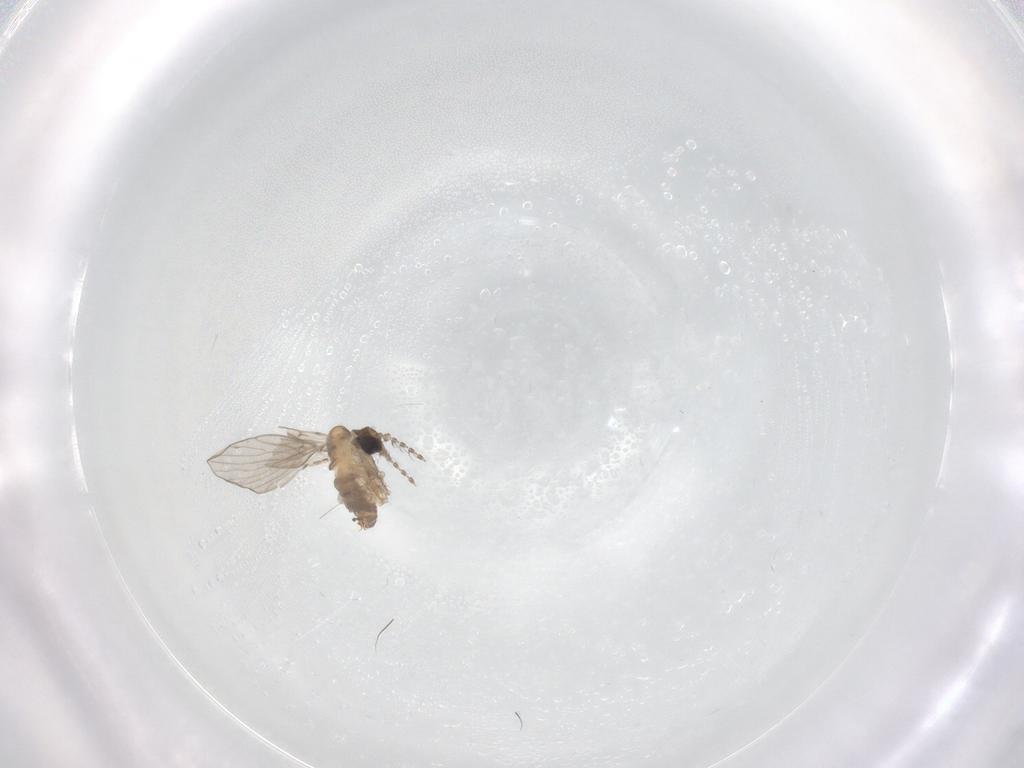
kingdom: Animalia
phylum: Arthropoda
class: Insecta
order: Diptera
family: Psychodidae
